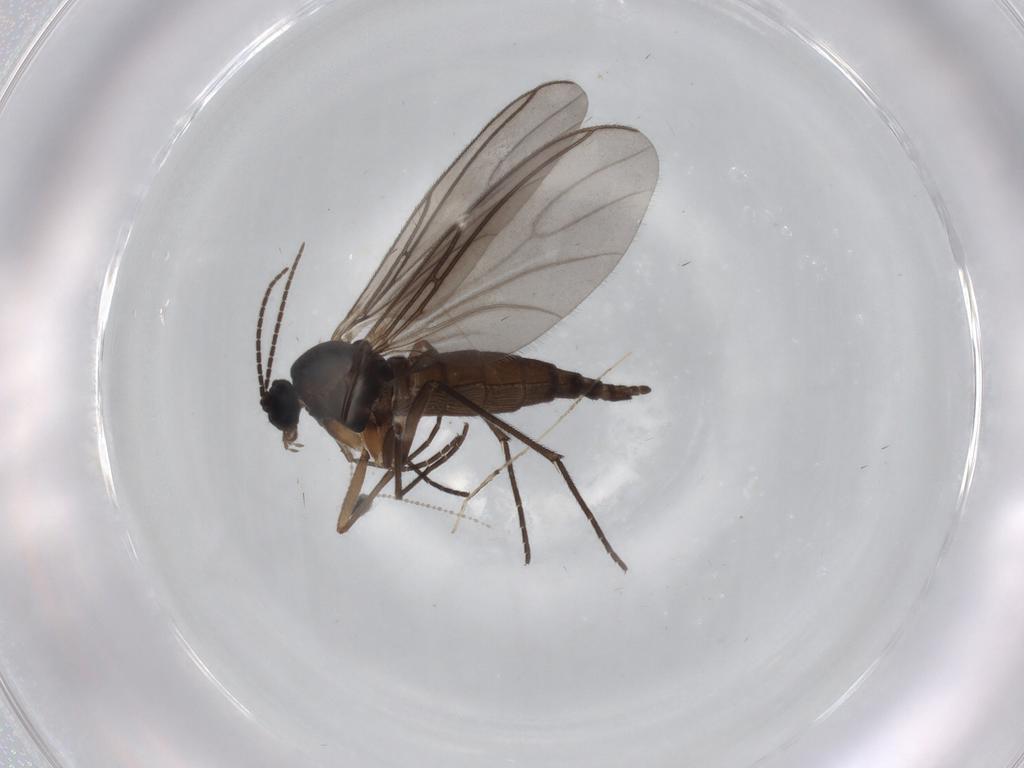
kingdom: Animalia
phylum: Arthropoda
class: Insecta
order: Diptera
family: Sciaridae
